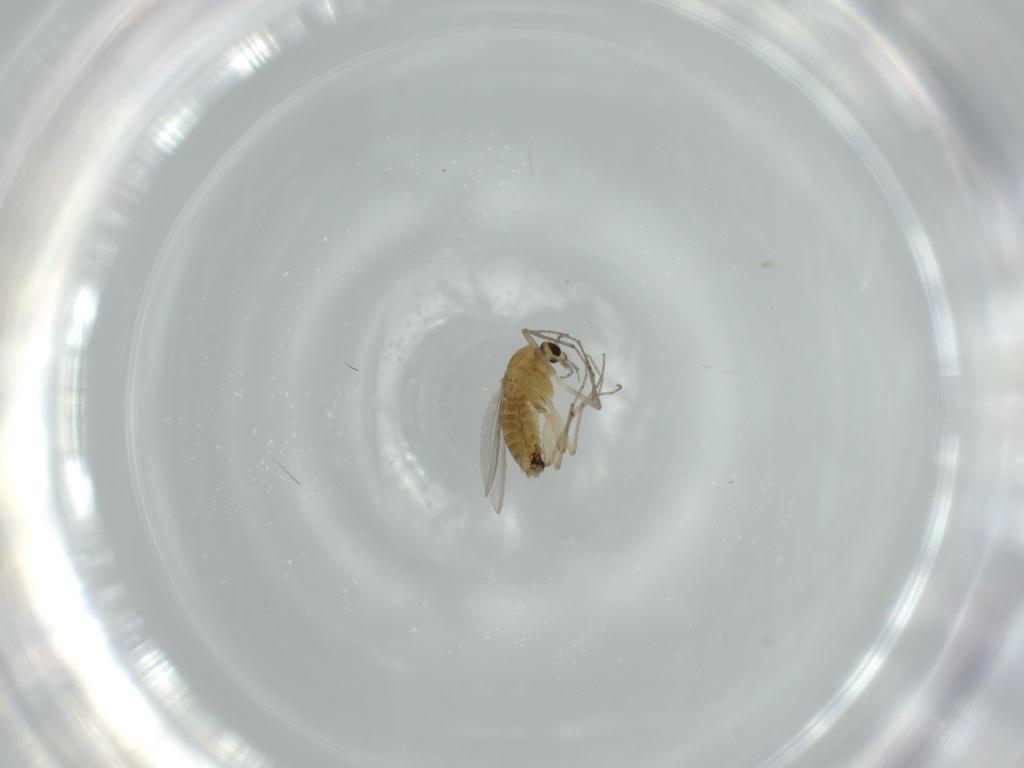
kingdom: Animalia
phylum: Arthropoda
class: Insecta
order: Diptera
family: Chironomidae
